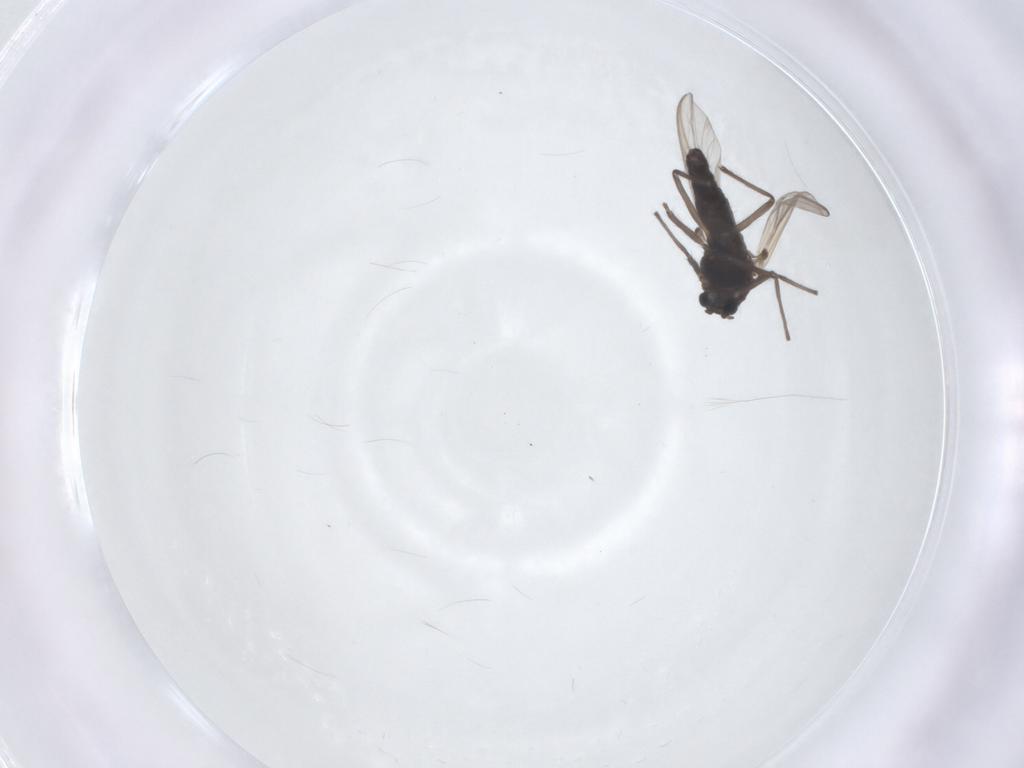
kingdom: Animalia
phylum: Arthropoda
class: Insecta
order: Diptera
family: Chironomidae
